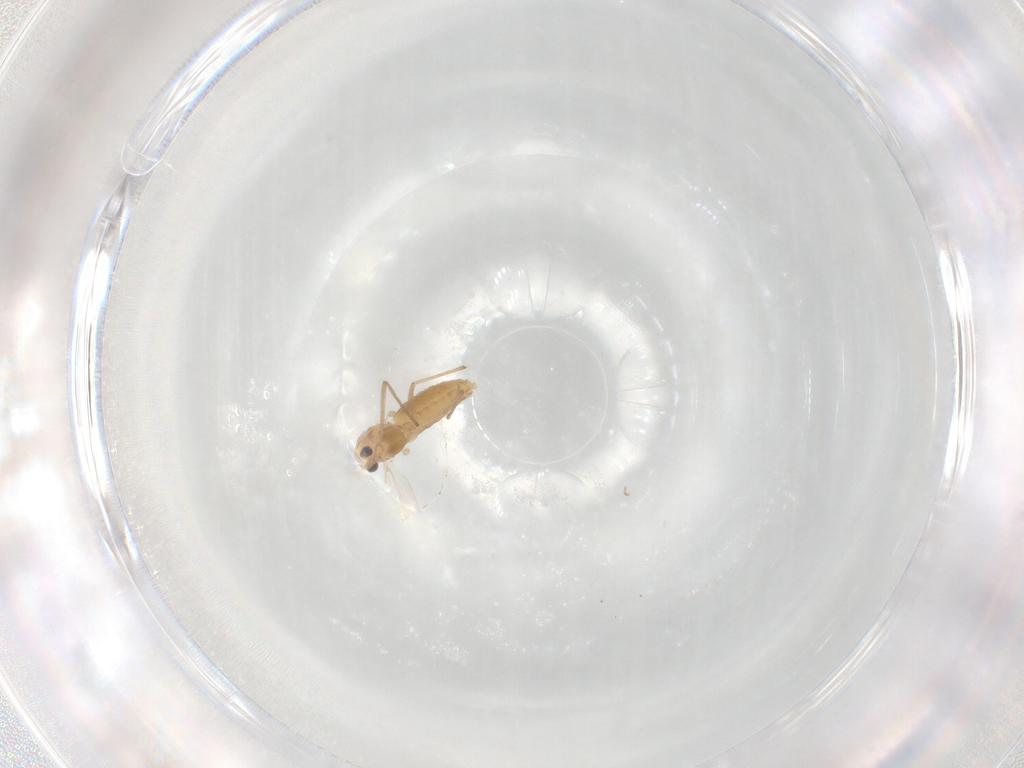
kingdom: Animalia
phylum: Arthropoda
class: Insecta
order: Diptera
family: Chironomidae
